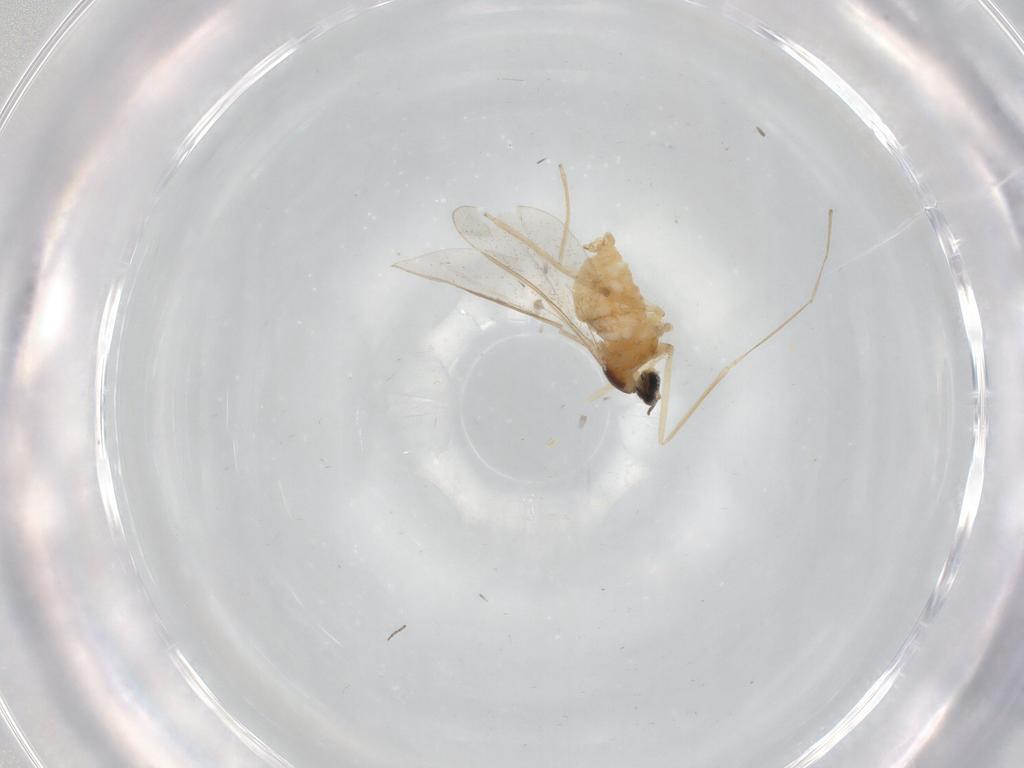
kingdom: Animalia
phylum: Arthropoda
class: Insecta
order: Diptera
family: Cecidomyiidae
